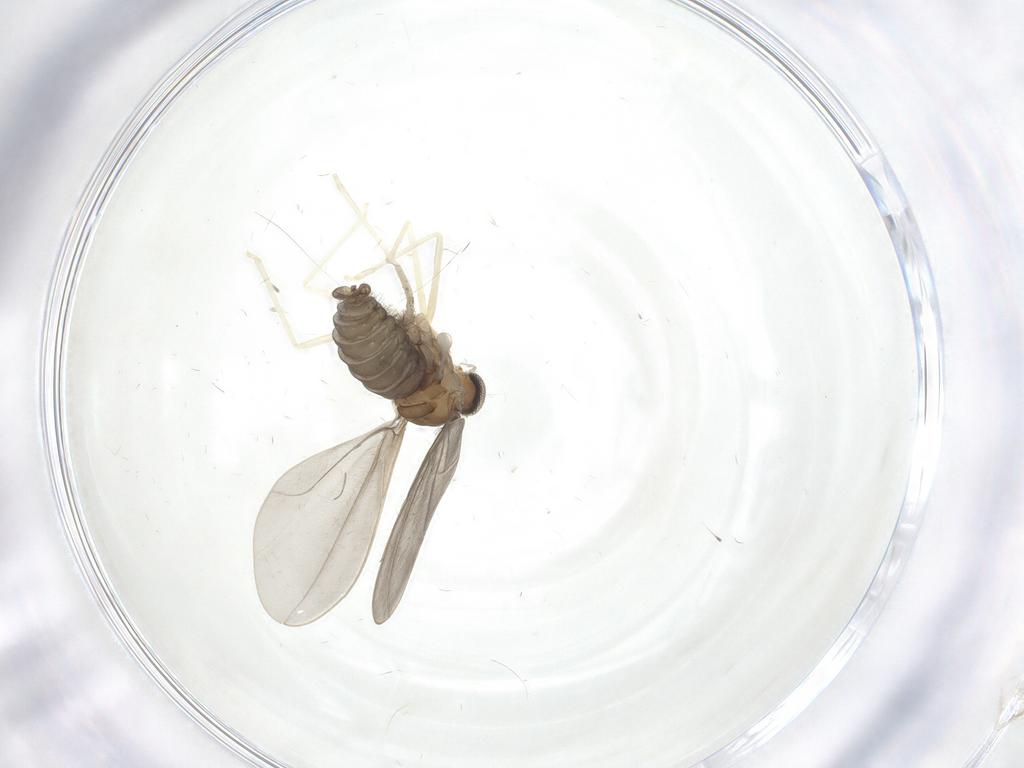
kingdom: Animalia
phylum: Arthropoda
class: Insecta
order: Diptera
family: Cecidomyiidae
